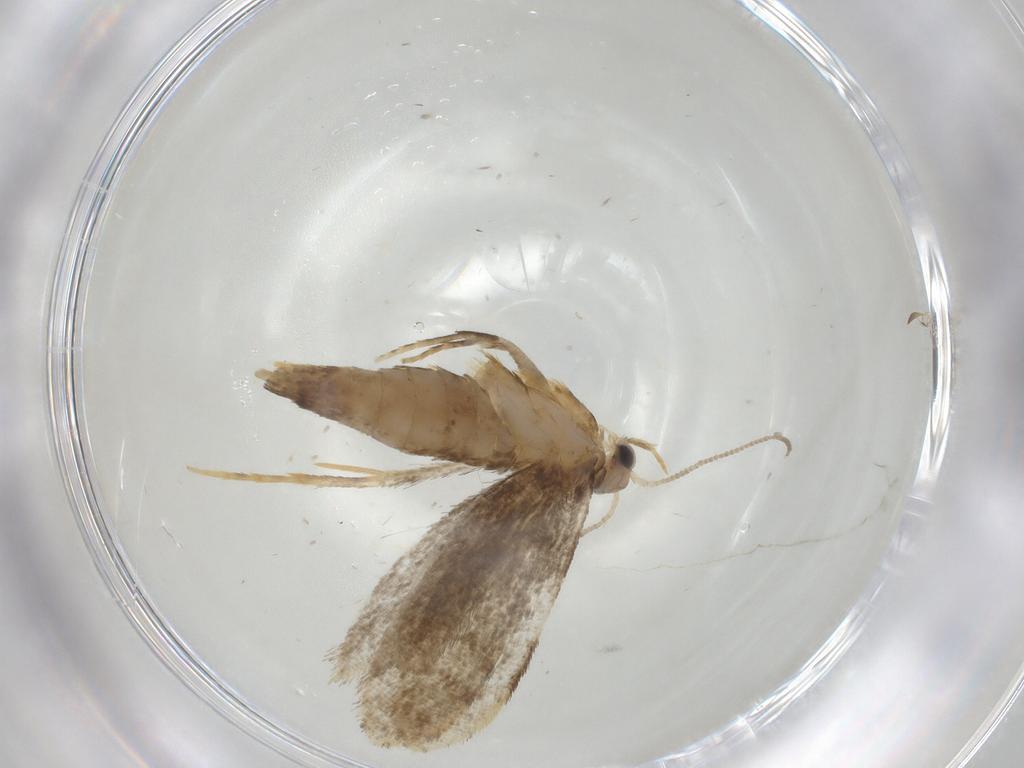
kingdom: Animalia
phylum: Arthropoda
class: Insecta
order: Lepidoptera
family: Tineidae
